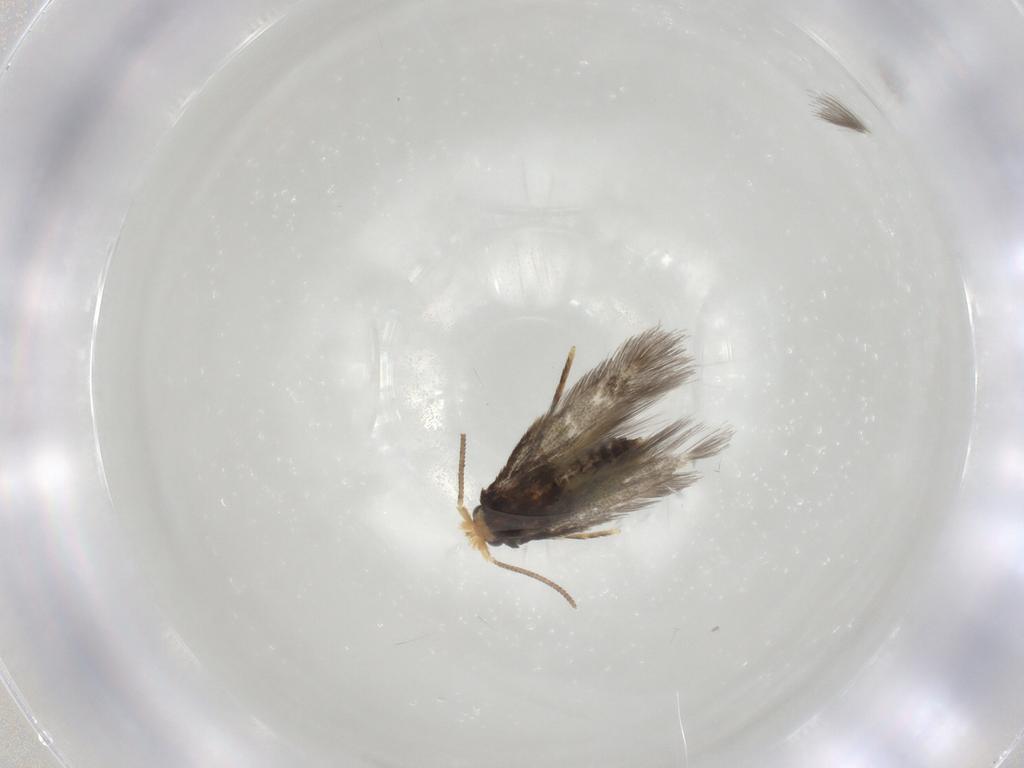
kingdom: Animalia
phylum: Arthropoda
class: Insecta
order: Lepidoptera
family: Nepticulidae
